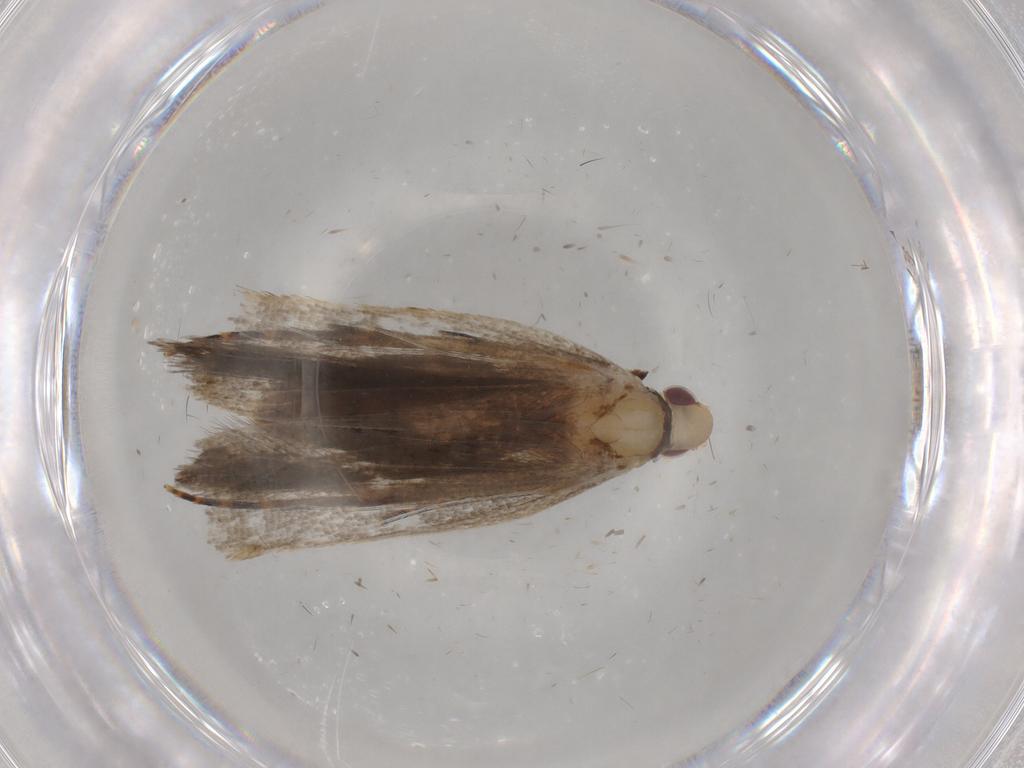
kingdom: Animalia
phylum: Arthropoda
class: Insecta
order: Lepidoptera
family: Gelechiidae
